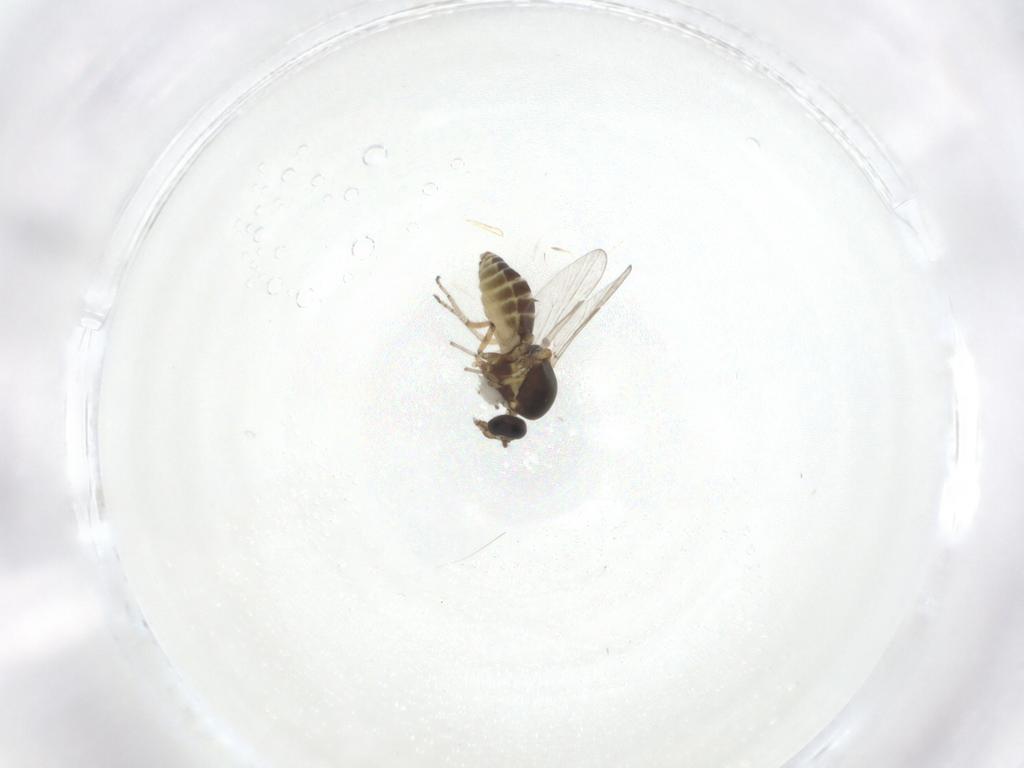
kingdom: Animalia
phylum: Arthropoda
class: Insecta
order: Diptera
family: Ceratopogonidae
